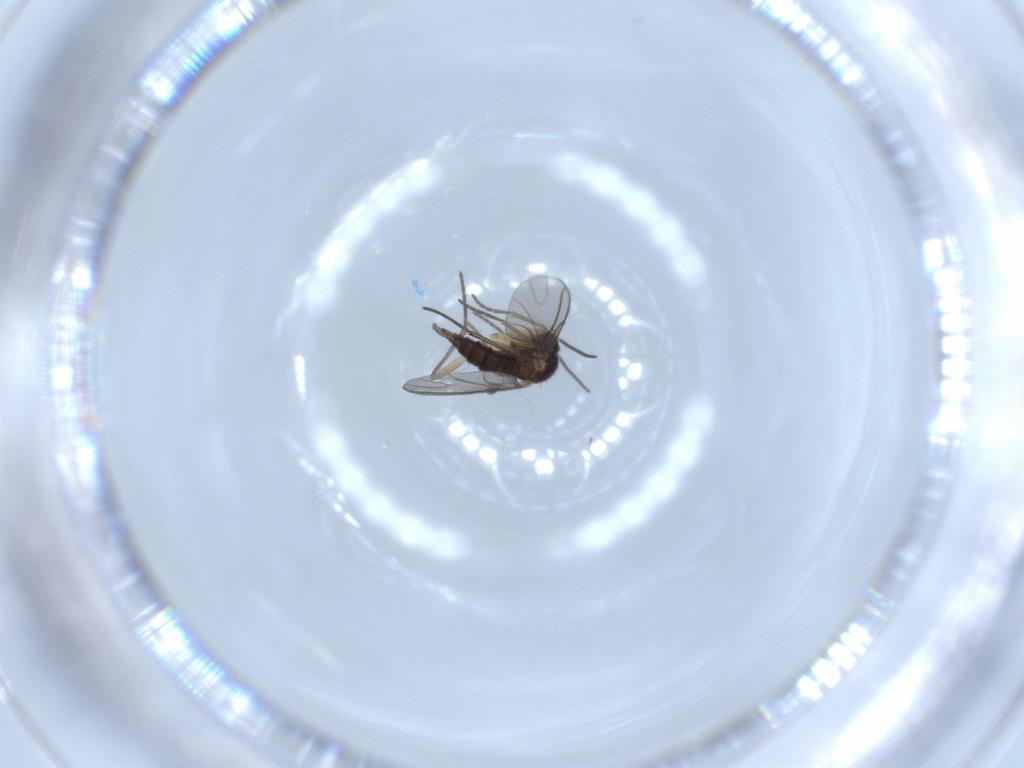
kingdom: Animalia
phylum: Arthropoda
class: Insecta
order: Diptera
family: Sciaridae
